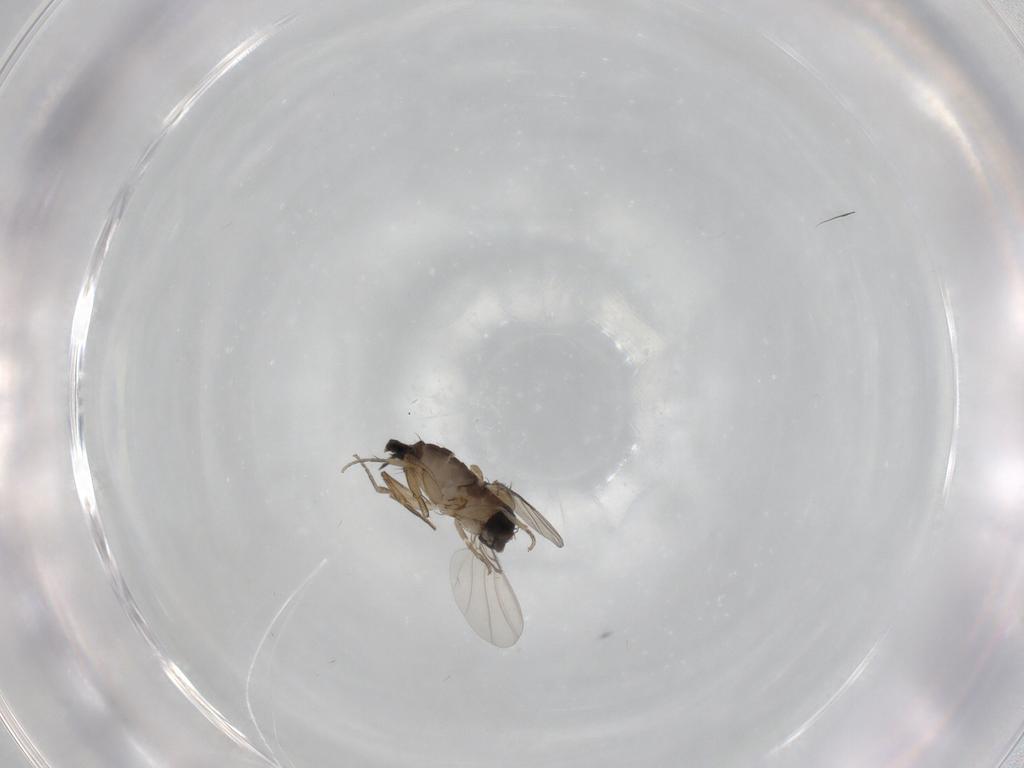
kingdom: Animalia
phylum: Arthropoda
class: Insecta
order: Diptera
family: Phoridae
